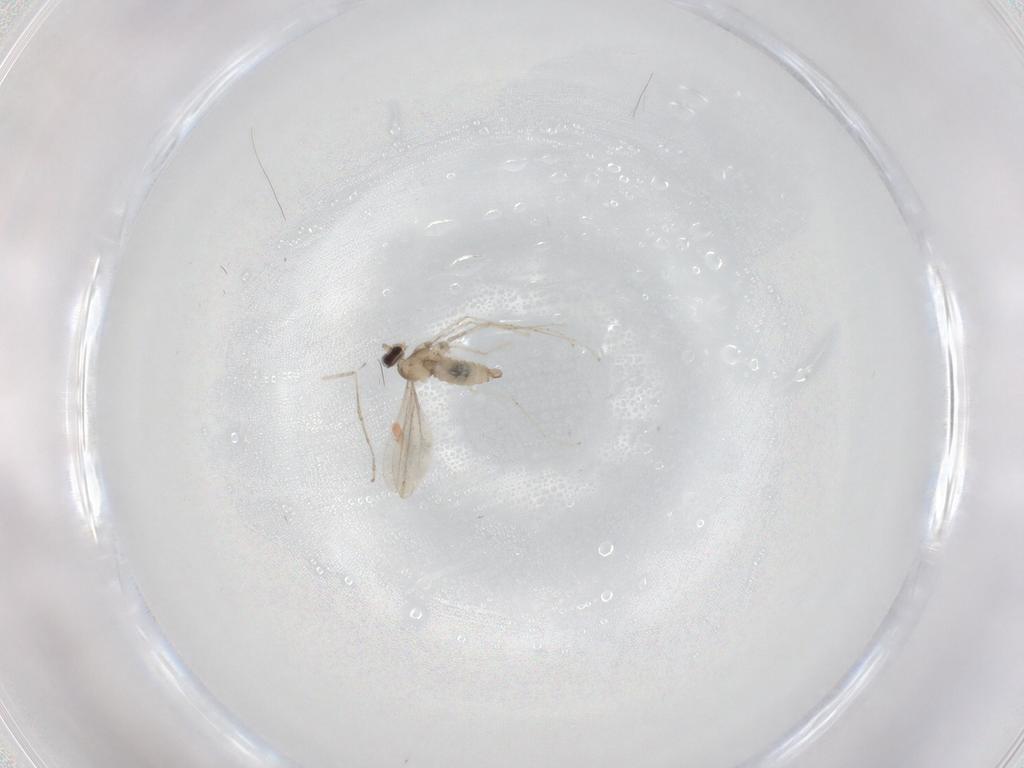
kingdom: Animalia
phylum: Arthropoda
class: Insecta
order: Diptera
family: Cecidomyiidae
